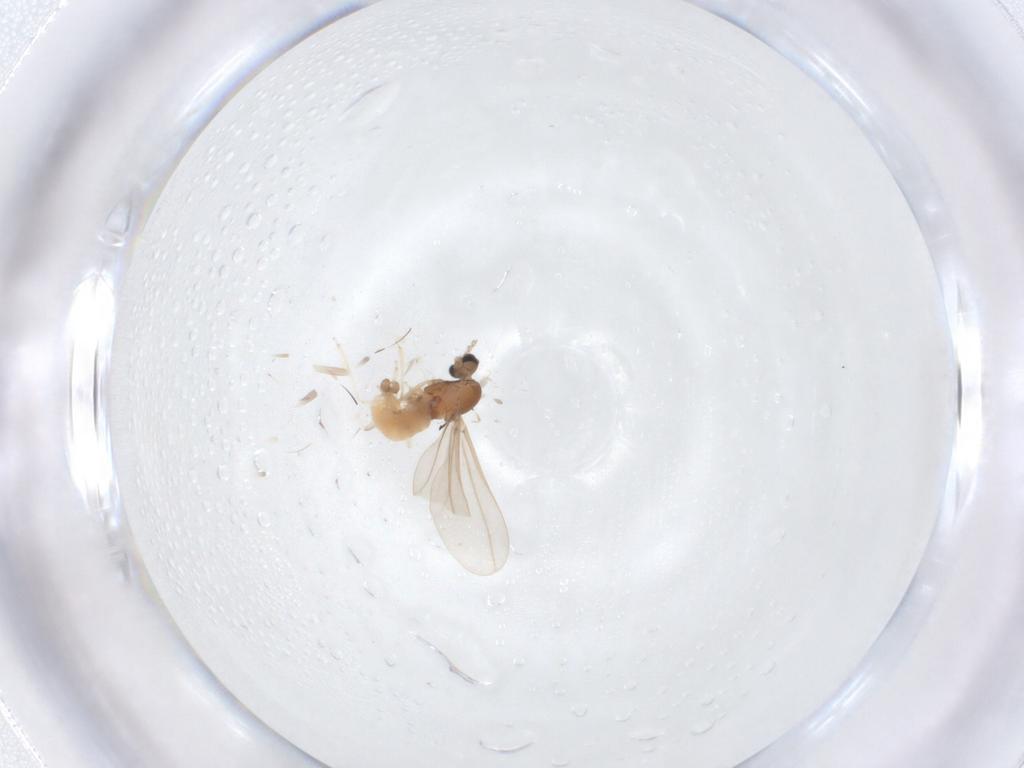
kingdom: Animalia
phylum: Arthropoda
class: Insecta
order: Diptera
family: Cecidomyiidae
